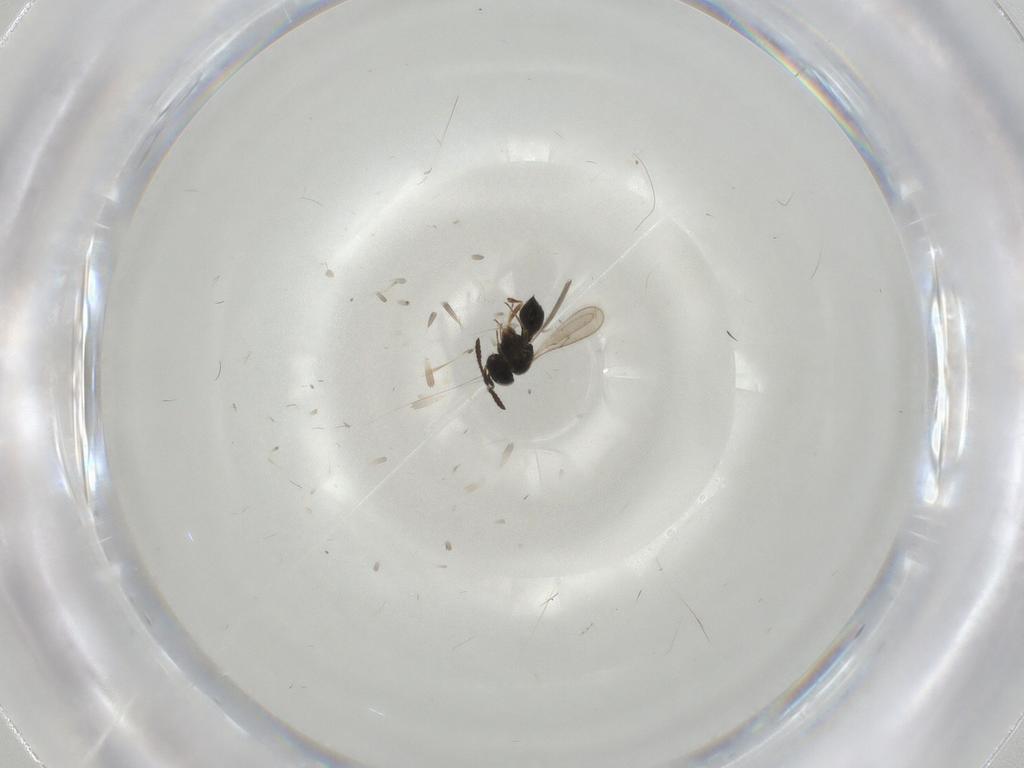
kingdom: Animalia
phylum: Arthropoda
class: Insecta
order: Hymenoptera
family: Scelionidae
